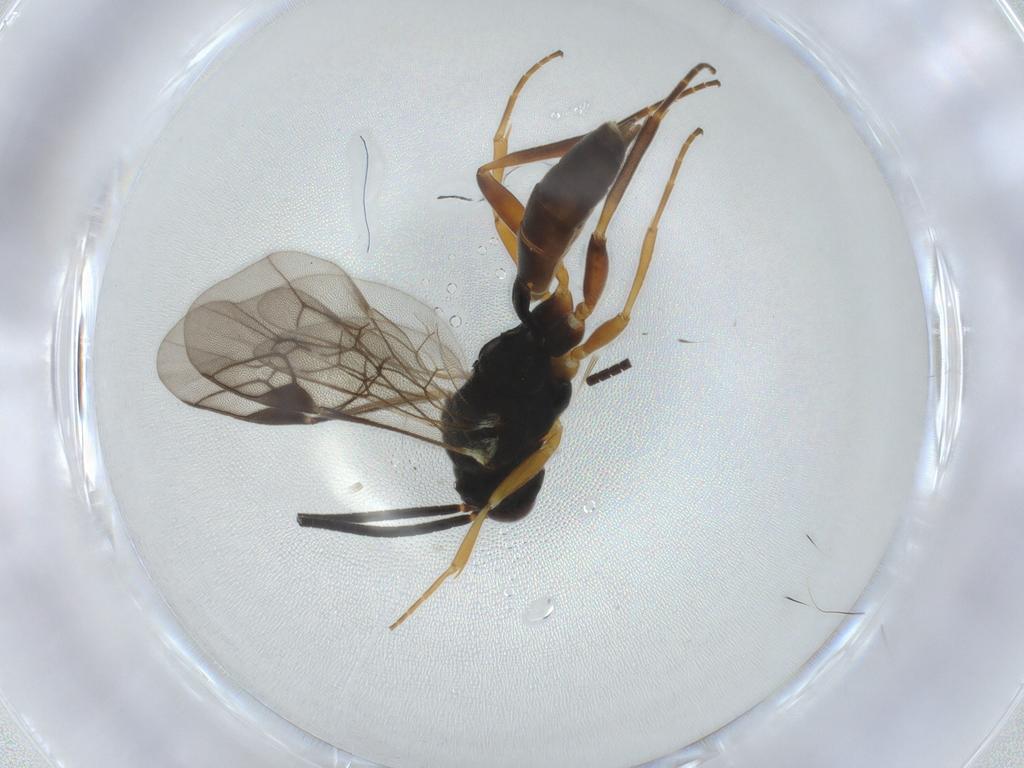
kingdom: Animalia
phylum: Arthropoda
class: Insecta
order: Hymenoptera
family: Ichneumonidae
